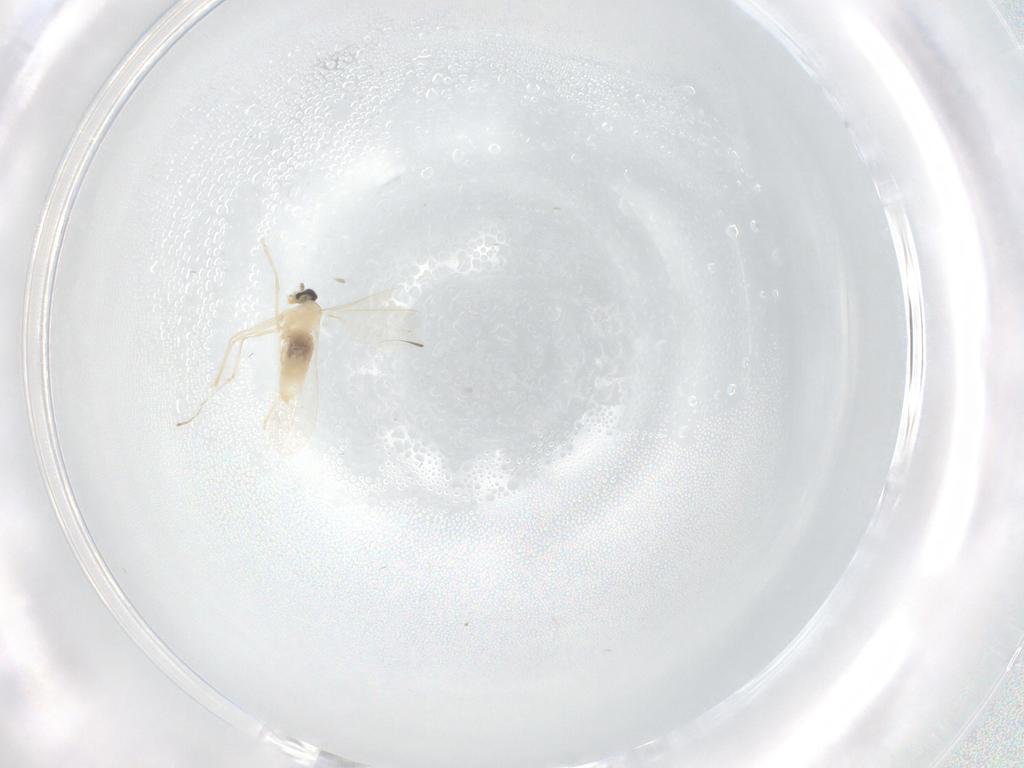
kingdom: Animalia
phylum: Arthropoda
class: Insecta
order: Diptera
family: Cecidomyiidae
